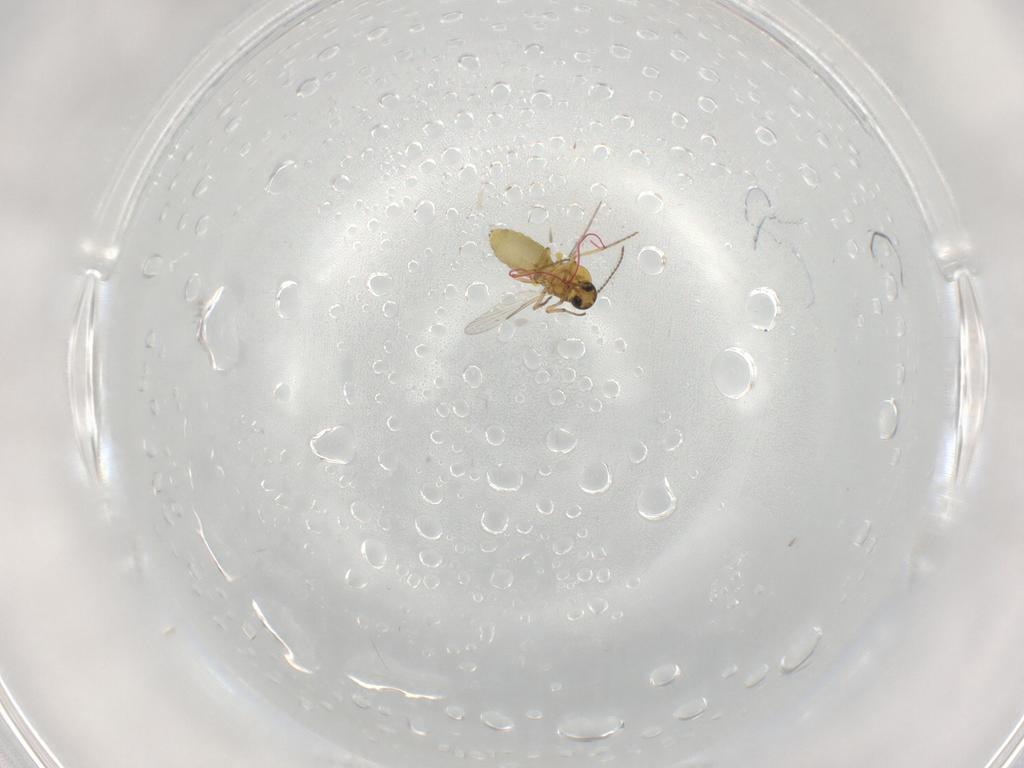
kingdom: Animalia
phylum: Arthropoda
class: Insecta
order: Diptera
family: Ceratopogonidae
